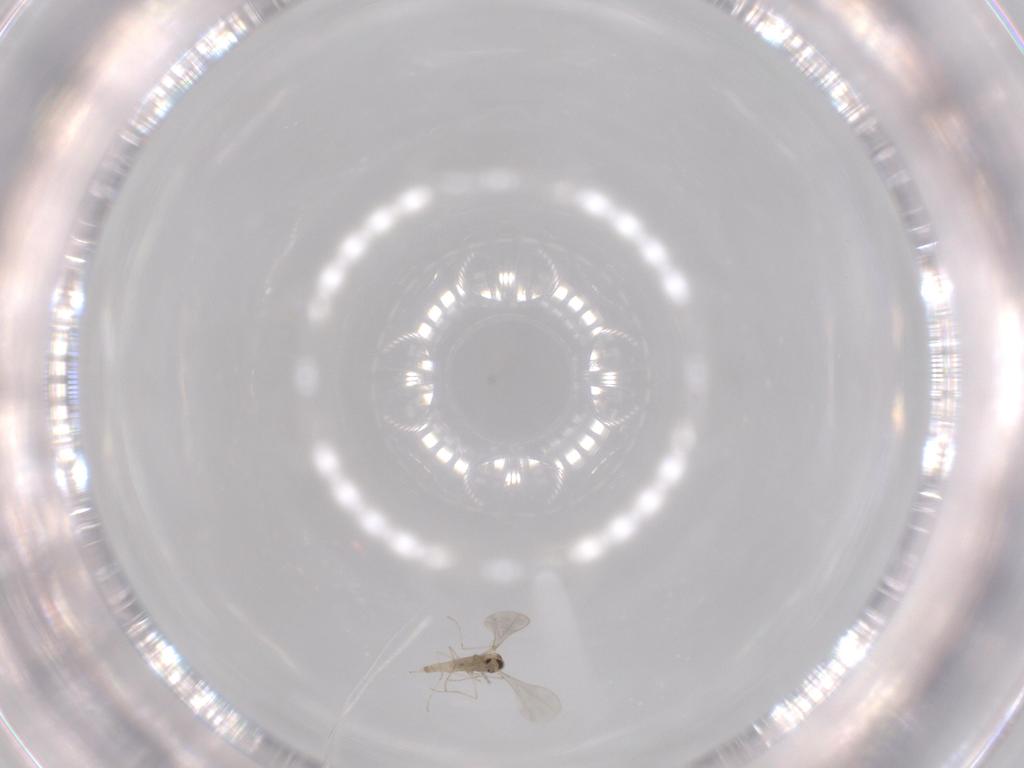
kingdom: Animalia
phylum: Arthropoda
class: Insecta
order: Diptera
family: Cecidomyiidae
